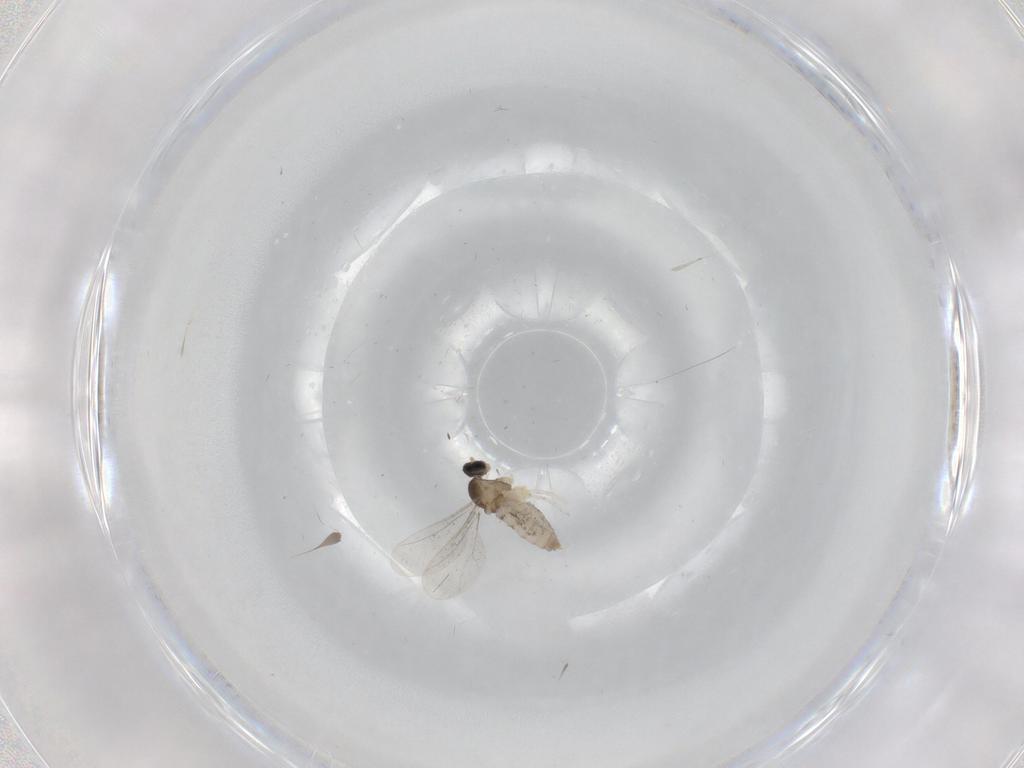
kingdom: Animalia
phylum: Arthropoda
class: Insecta
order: Diptera
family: Cecidomyiidae
